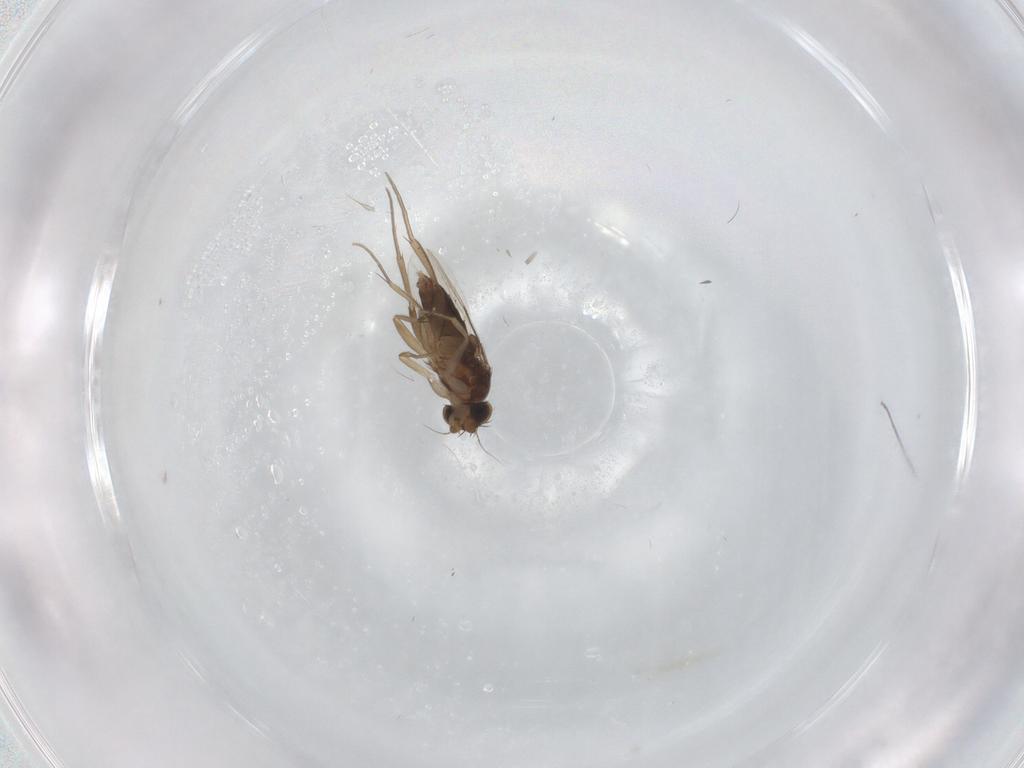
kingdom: Animalia
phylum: Arthropoda
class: Insecta
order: Diptera
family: Phoridae
